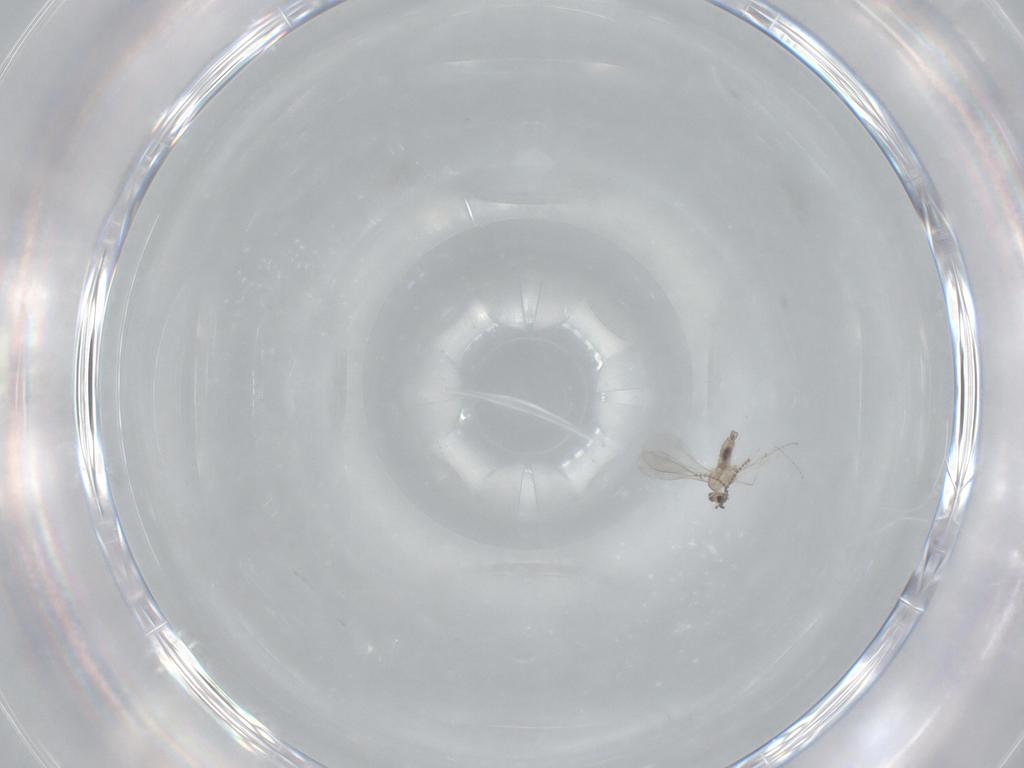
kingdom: Animalia
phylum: Arthropoda
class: Insecta
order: Diptera
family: Cecidomyiidae
